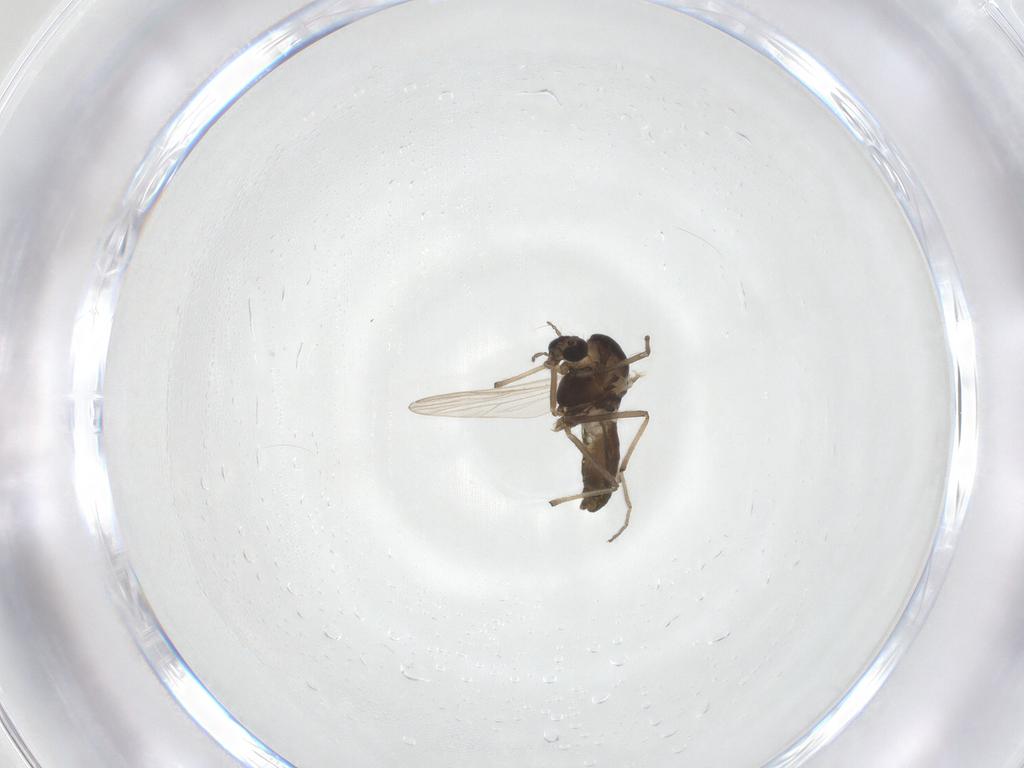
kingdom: Animalia
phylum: Arthropoda
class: Insecta
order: Diptera
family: Chironomidae
